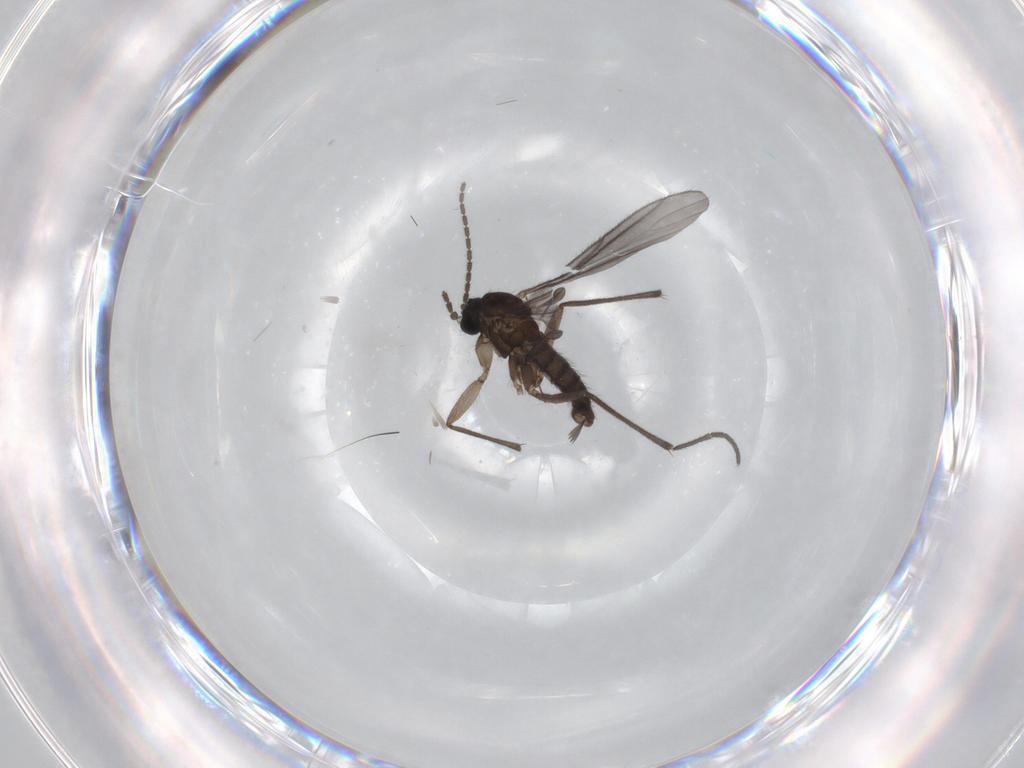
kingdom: Animalia
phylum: Arthropoda
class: Insecta
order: Diptera
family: Sciaridae
